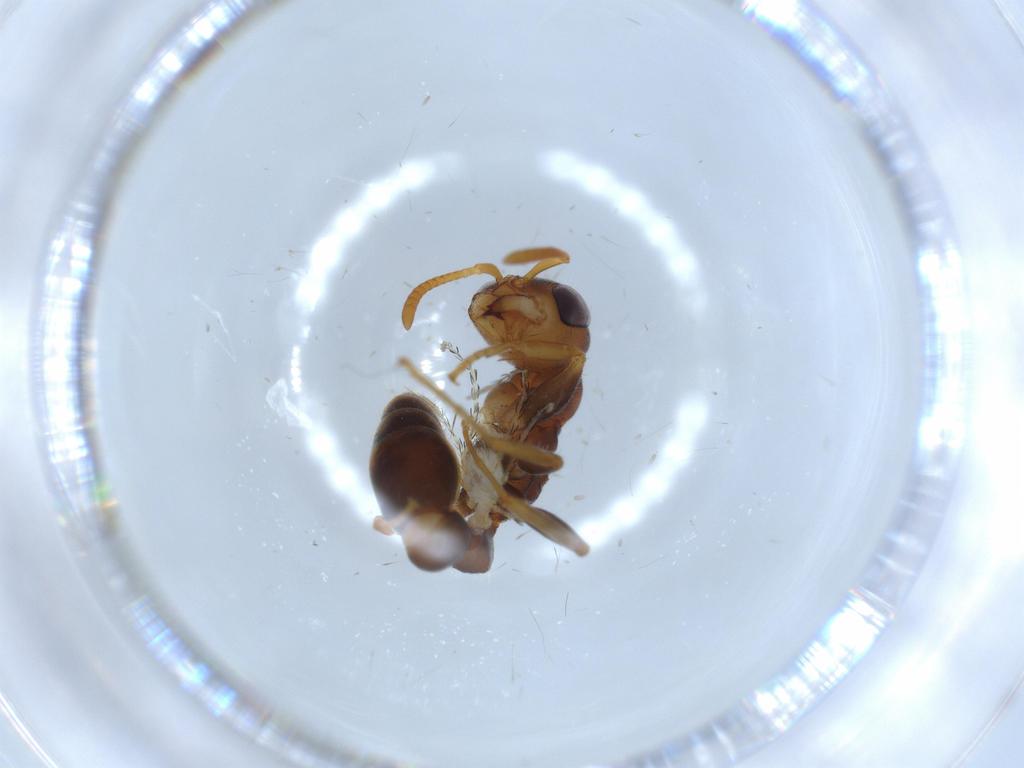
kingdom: Animalia
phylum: Arthropoda
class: Insecta
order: Hymenoptera
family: Formicidae
